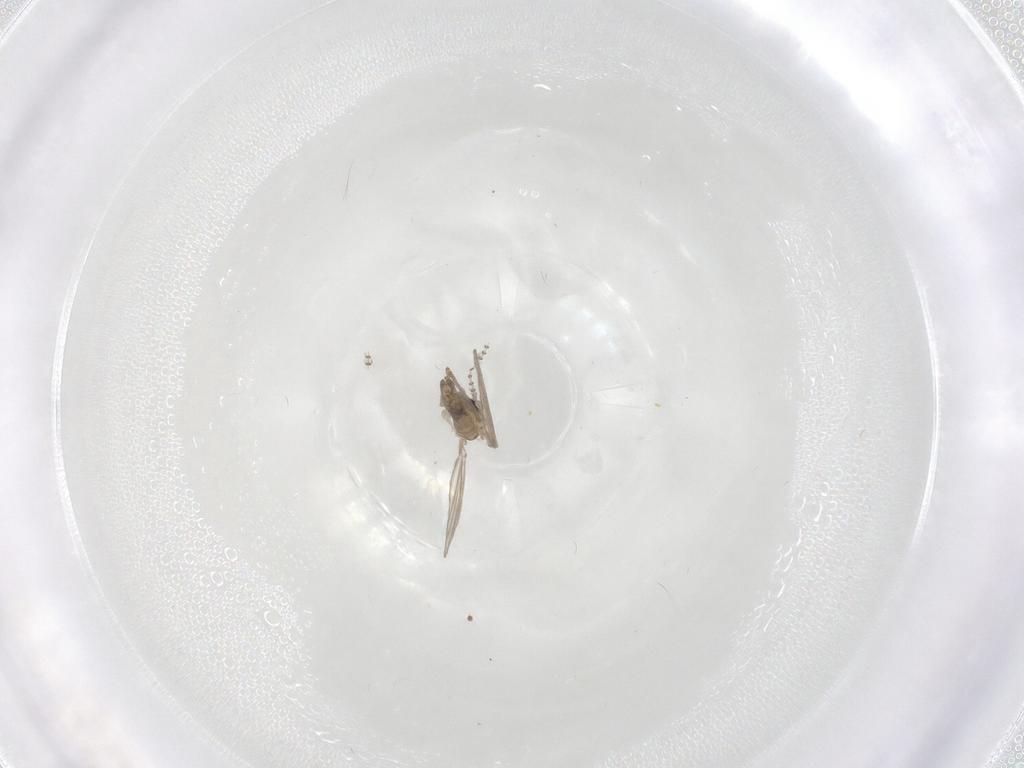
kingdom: Animalia
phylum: Arthropoda
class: Insecta
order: Diptera
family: Psychodidae
